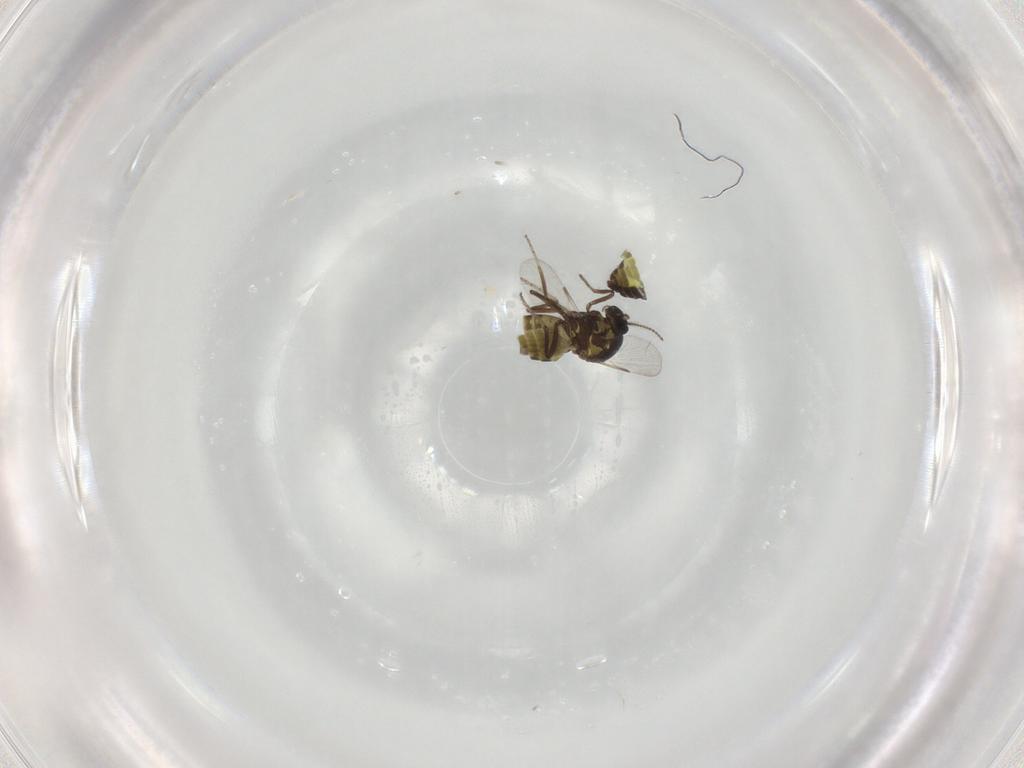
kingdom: Animalia
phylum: Arthropoda
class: Insecta
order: Diptera
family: Ceratopogonidae
